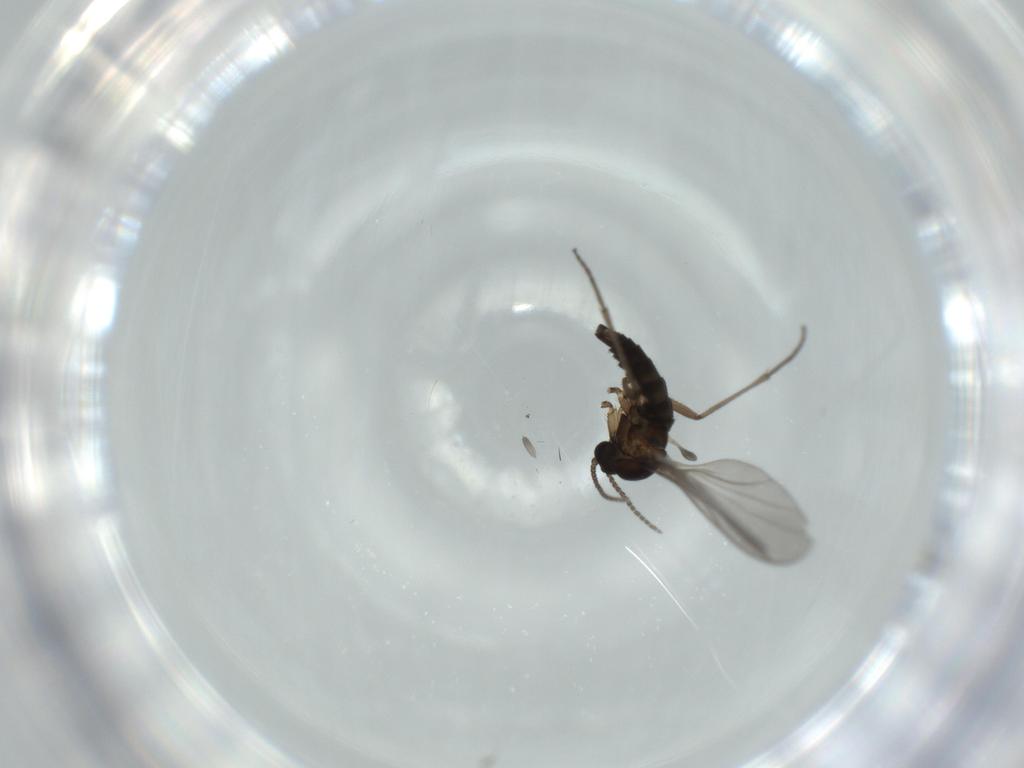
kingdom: Animalia
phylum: Arthropoda
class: Insecta
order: Diptera
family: Sciaridae
